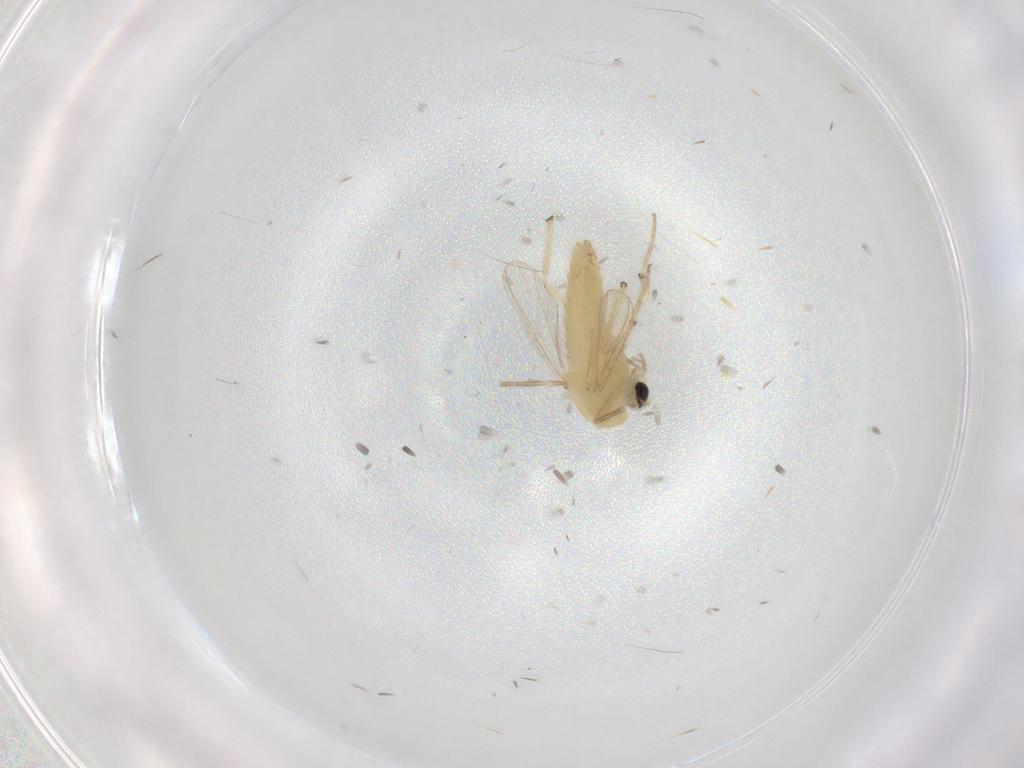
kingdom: Animalia
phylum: Arthropoda
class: Insecta
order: Diptera
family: Chironomidae
